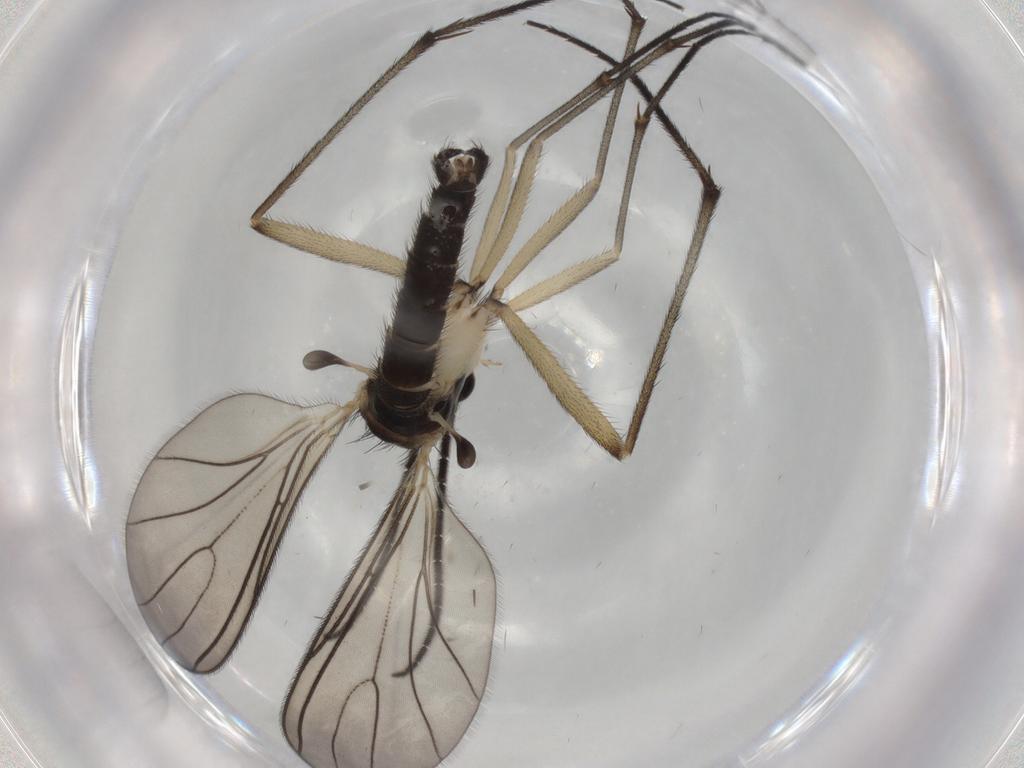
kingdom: Animalia
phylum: Arthropoda
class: Insecta
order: Diptera
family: Sciaridae
